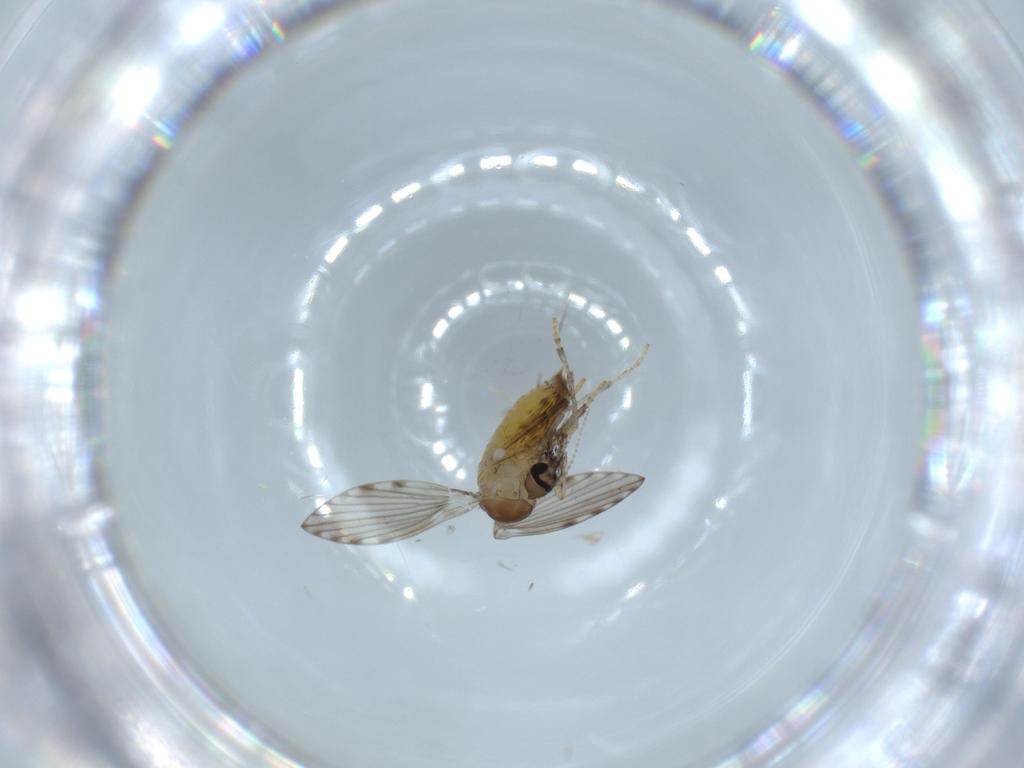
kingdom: Animalia
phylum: Arthropoda
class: Insecta
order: Diptera
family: Psychodidae
